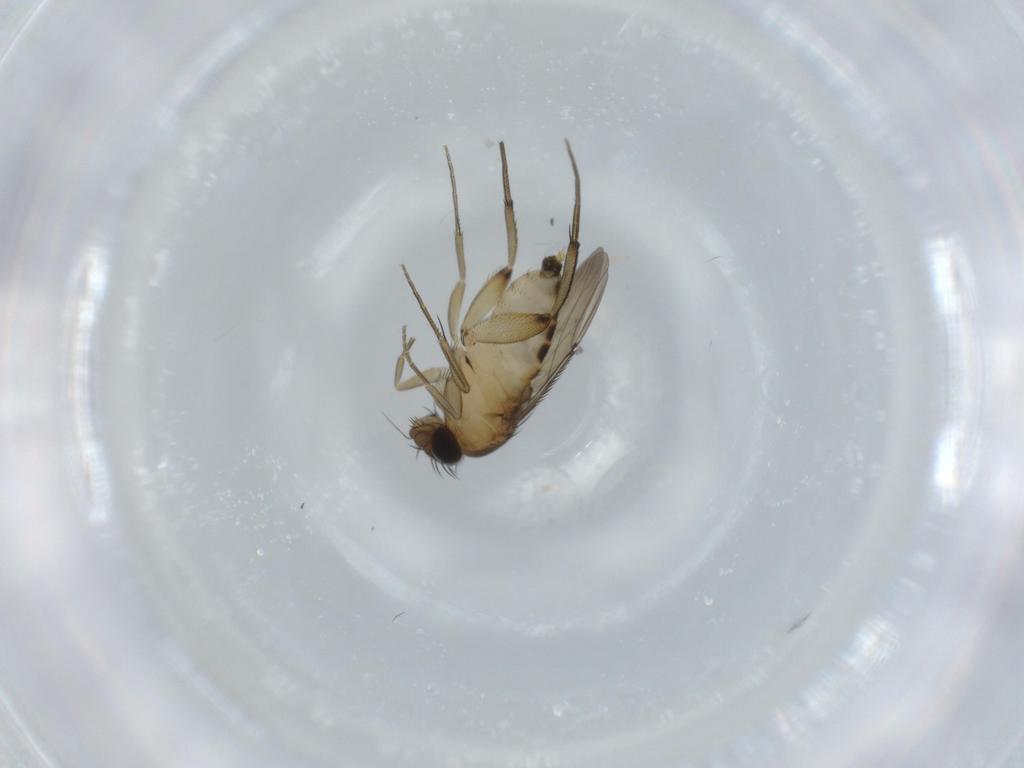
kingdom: Animalia
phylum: Arthropoda
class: Insecta
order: Diptera
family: Phoridae
